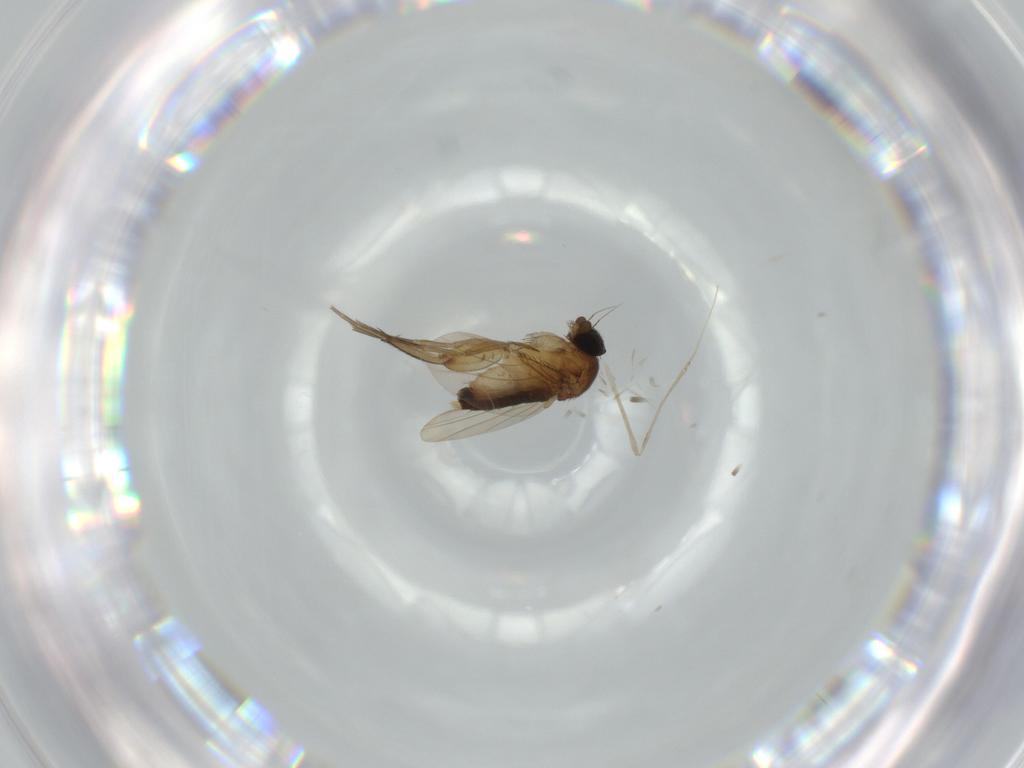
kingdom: Animalia
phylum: Arthropoda
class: Insecta
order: Diptera
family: Phoridae
